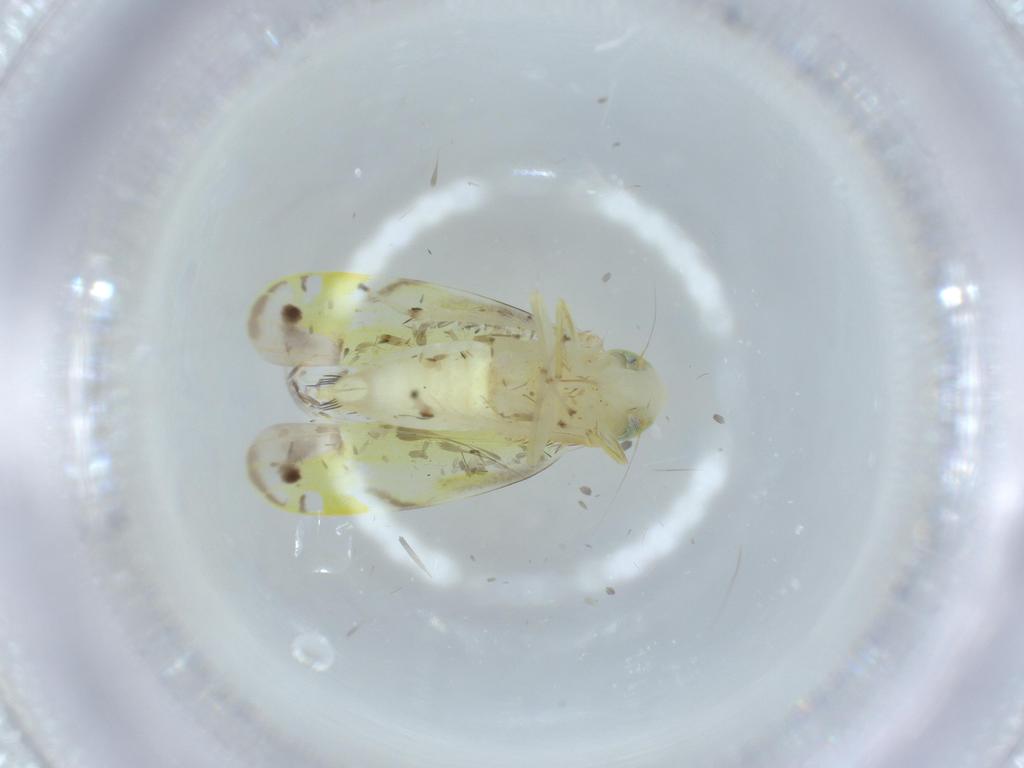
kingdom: Animalia
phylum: Arthropoda
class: Insecta
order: Hemiptera
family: Cicadellidae
